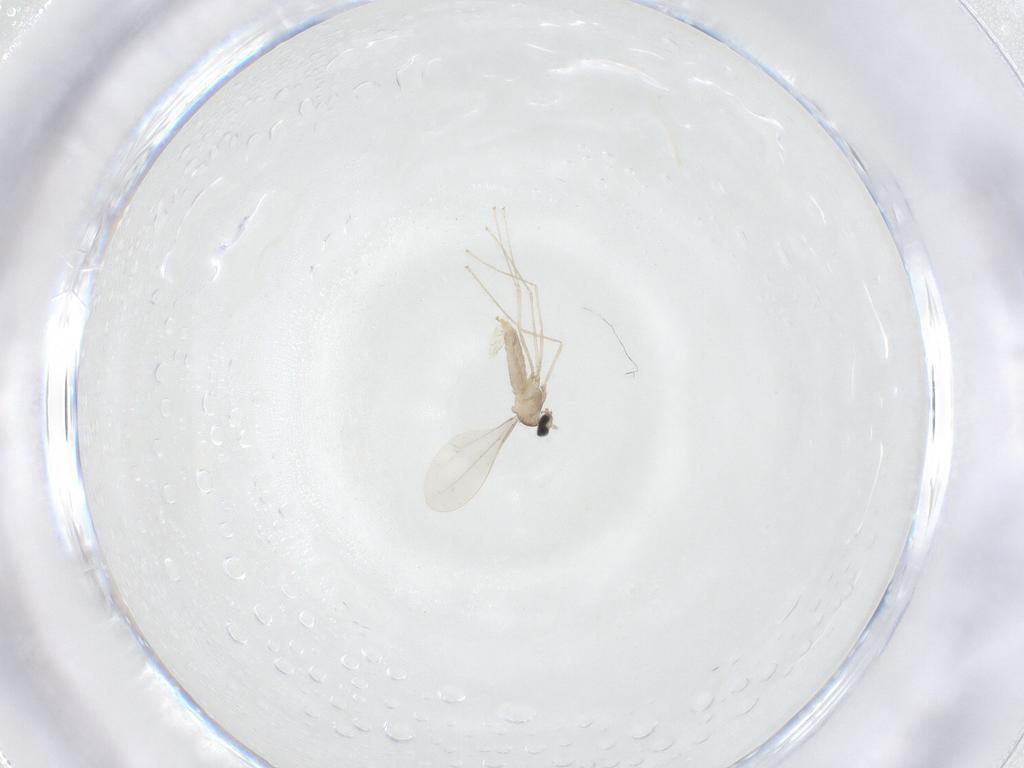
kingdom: Animalia
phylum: Arthropoda
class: Insecta
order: Diptera
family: Cecidomyiidae
